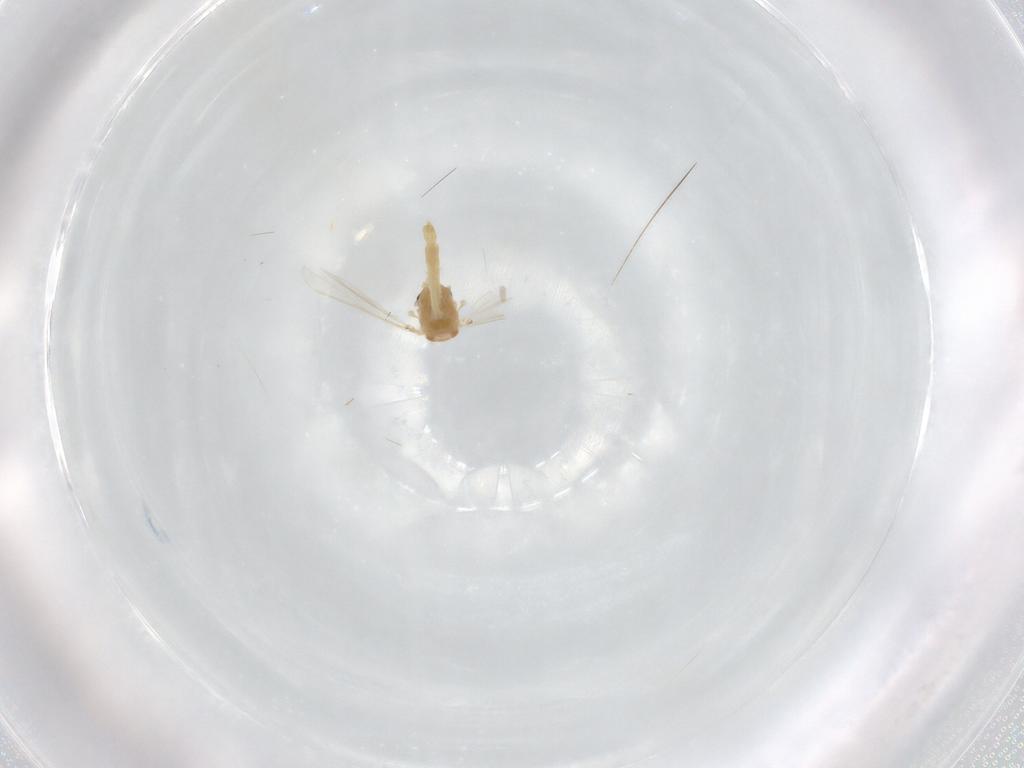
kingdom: Animalia
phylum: Arthropoda
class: Insecta
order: Diptera
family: Chironomidae
